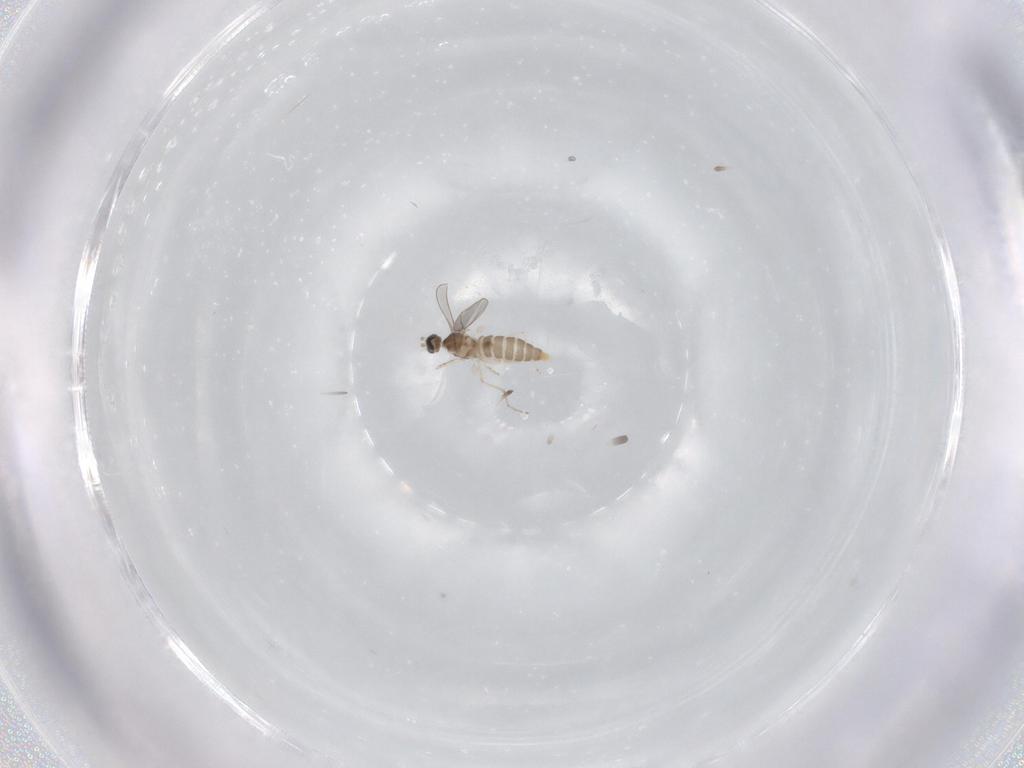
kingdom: Animalia
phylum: Arthropoda
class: Insecta
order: Diptera
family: Cecidomyiidae
